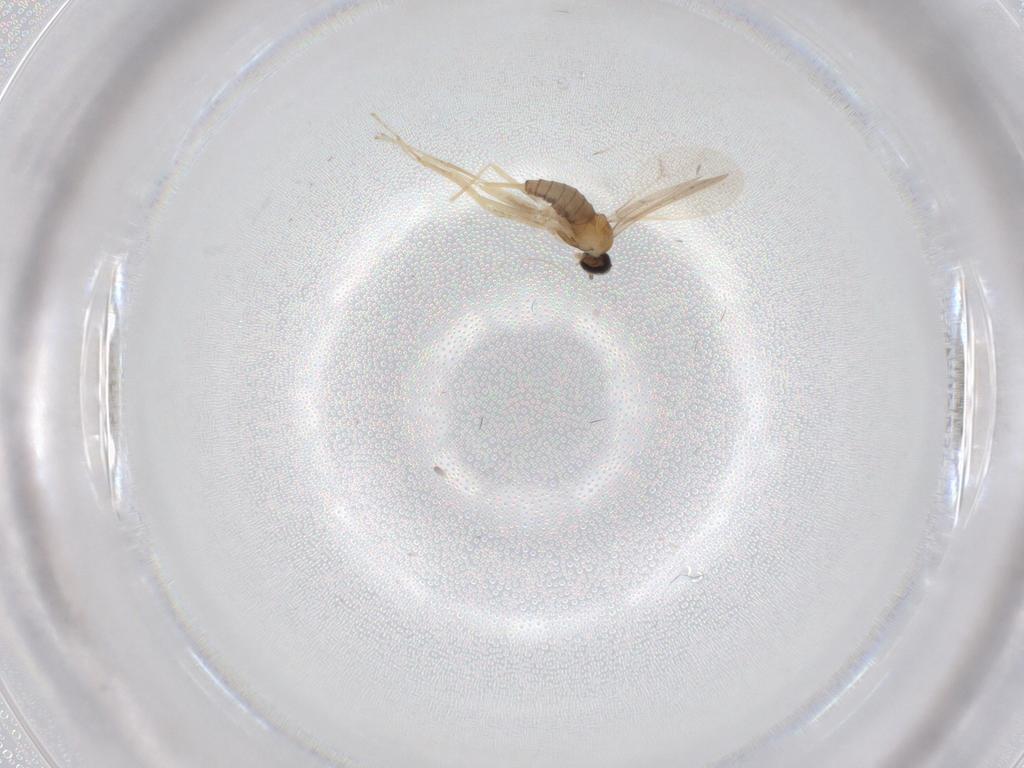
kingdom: Animalia
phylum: Arthropoda
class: Insecta
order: Diptera
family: Cecidomyiidae
